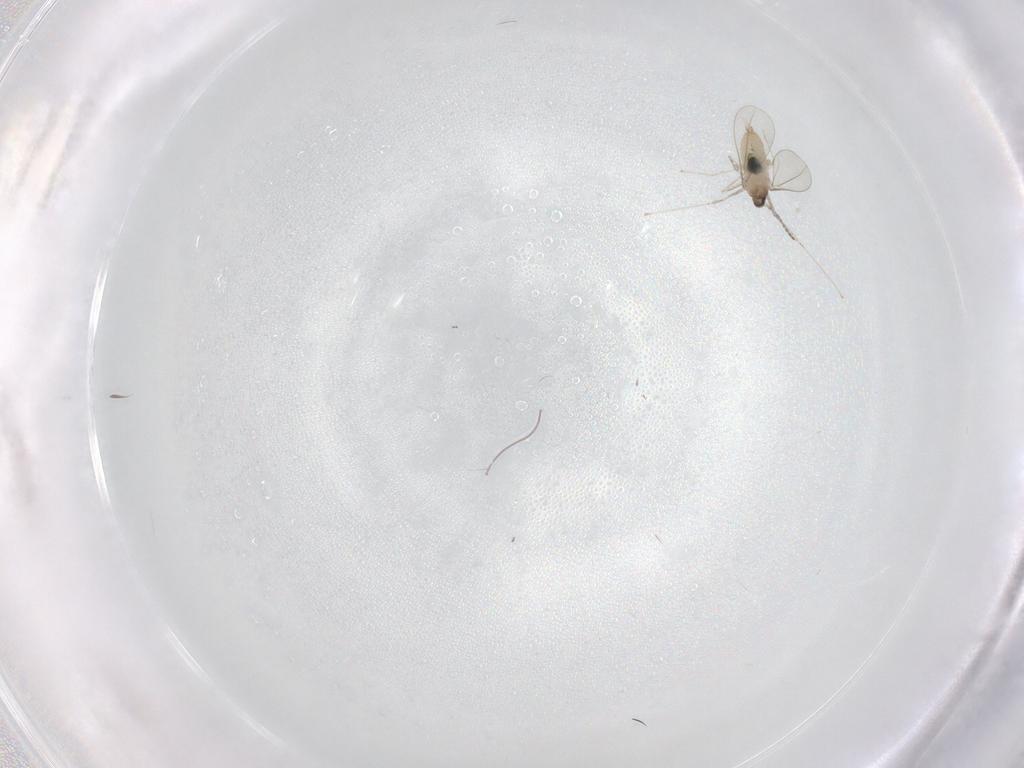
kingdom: Animalia
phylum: Arthropoda
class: Insecta
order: Diptera
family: Cecidomyiidae
